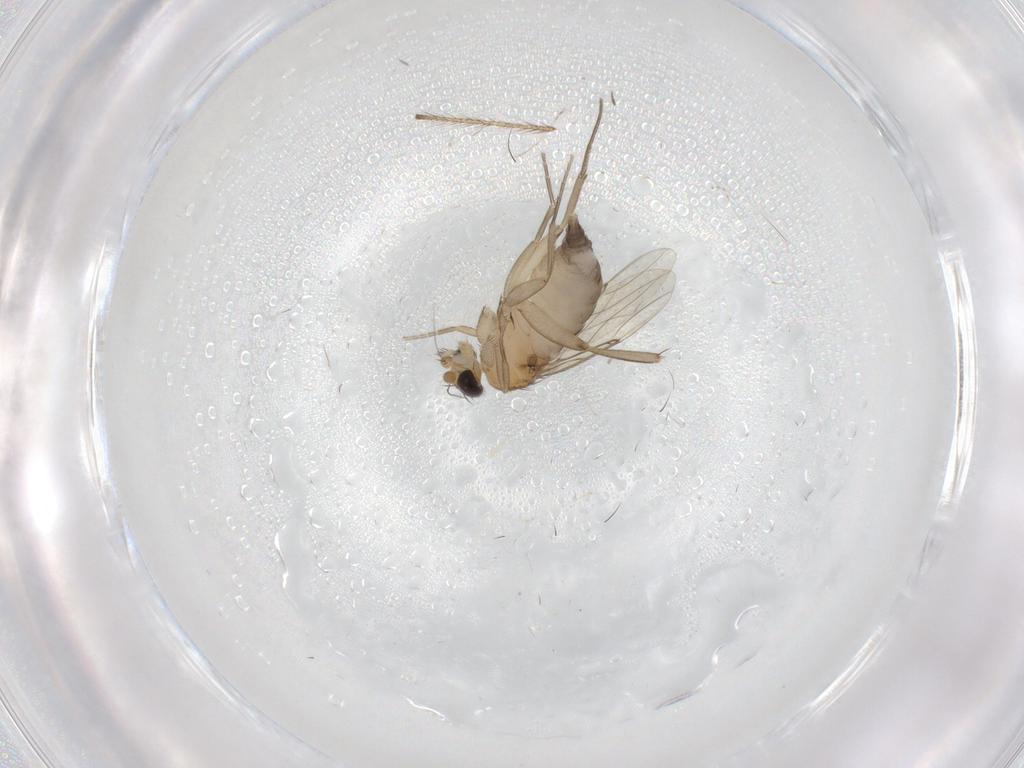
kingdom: Animalia
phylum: Arthropoda
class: Insecta
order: Diptera
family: Phoridae
